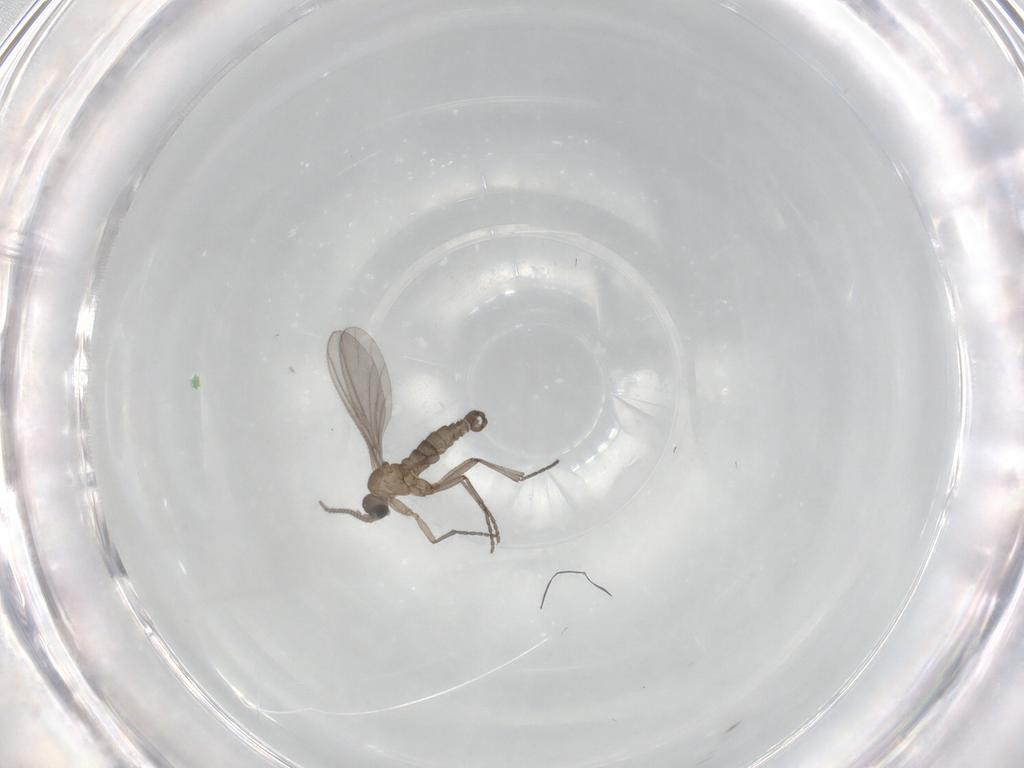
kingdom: Animalia
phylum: Arthropoda
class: Insecta
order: Diptera
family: Sciaridae
